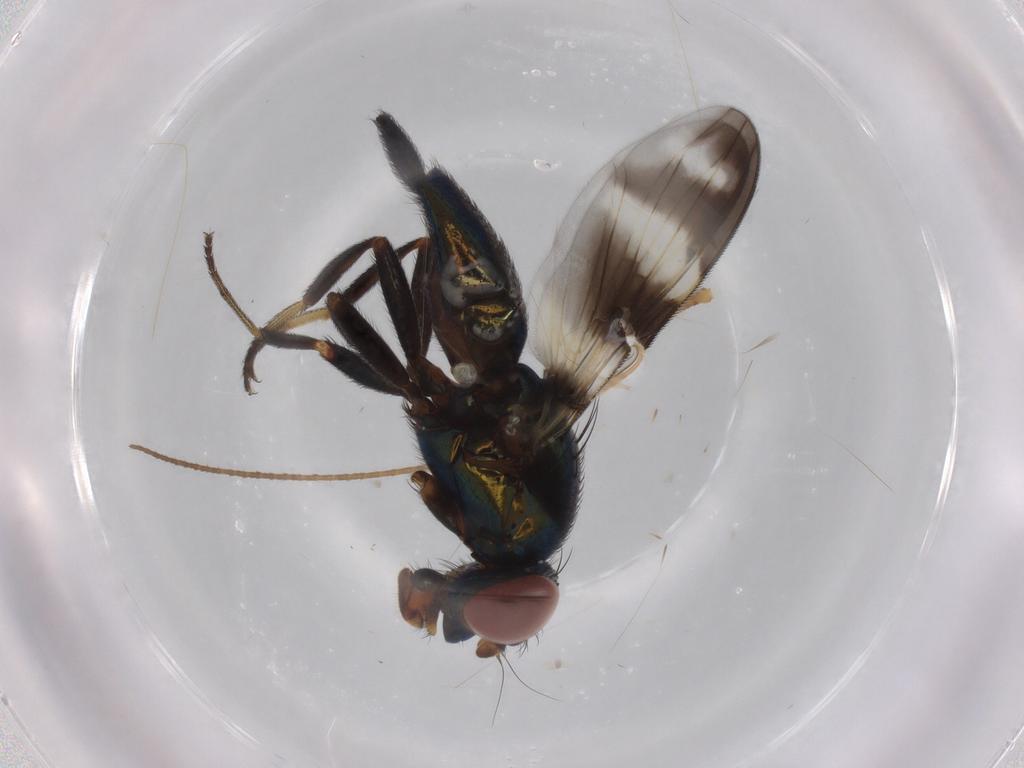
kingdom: Animalia
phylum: Arthropoda
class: Insecta
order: Diptera
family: Ulidiidae
